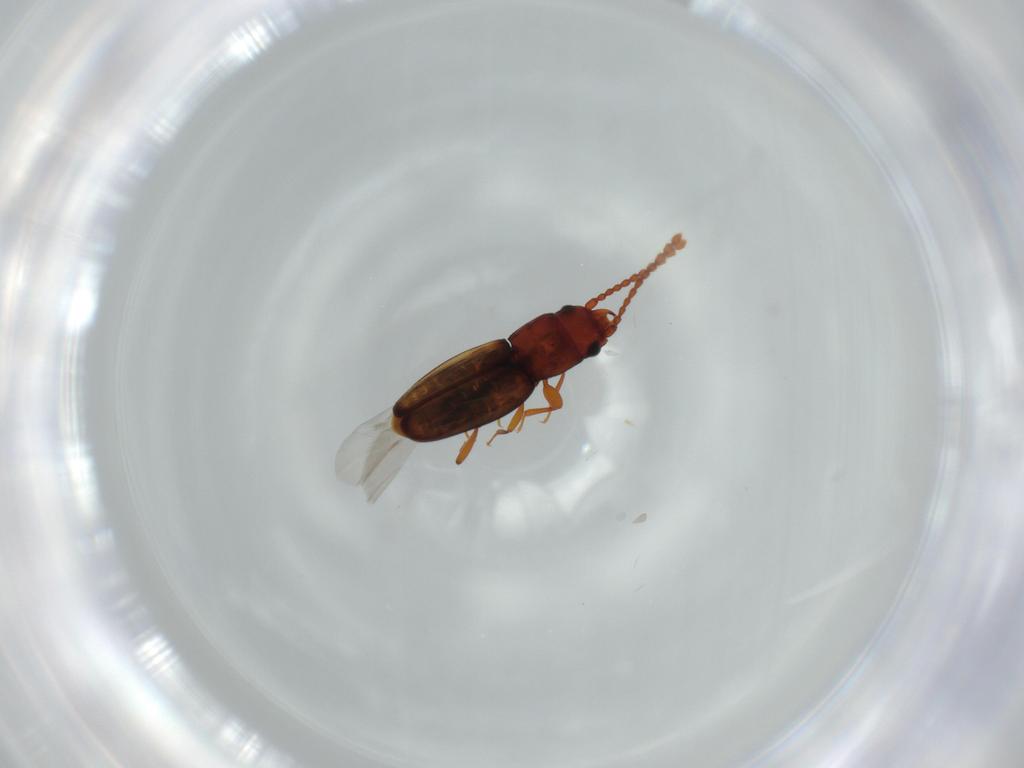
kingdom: Animalia
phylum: Arthropoda
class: Insecta
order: Coleoptera
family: Laemophloeidae
